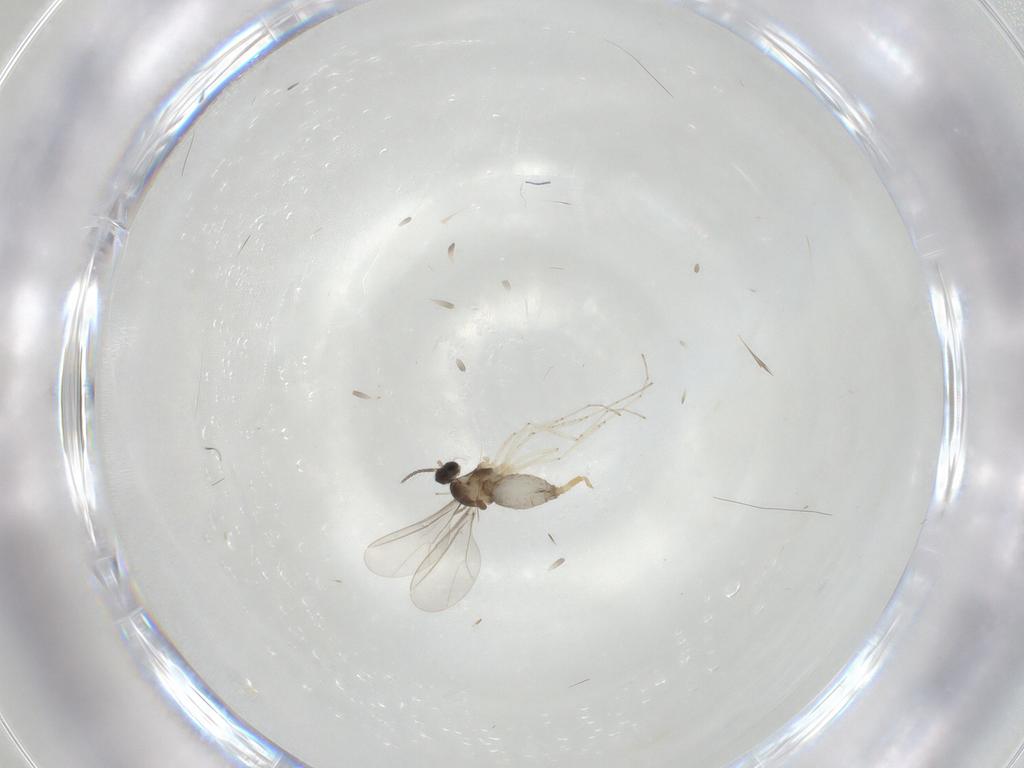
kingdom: Animalia
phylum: Arthropoda
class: Insecta
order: Diptera
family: Cecidomyiidae
